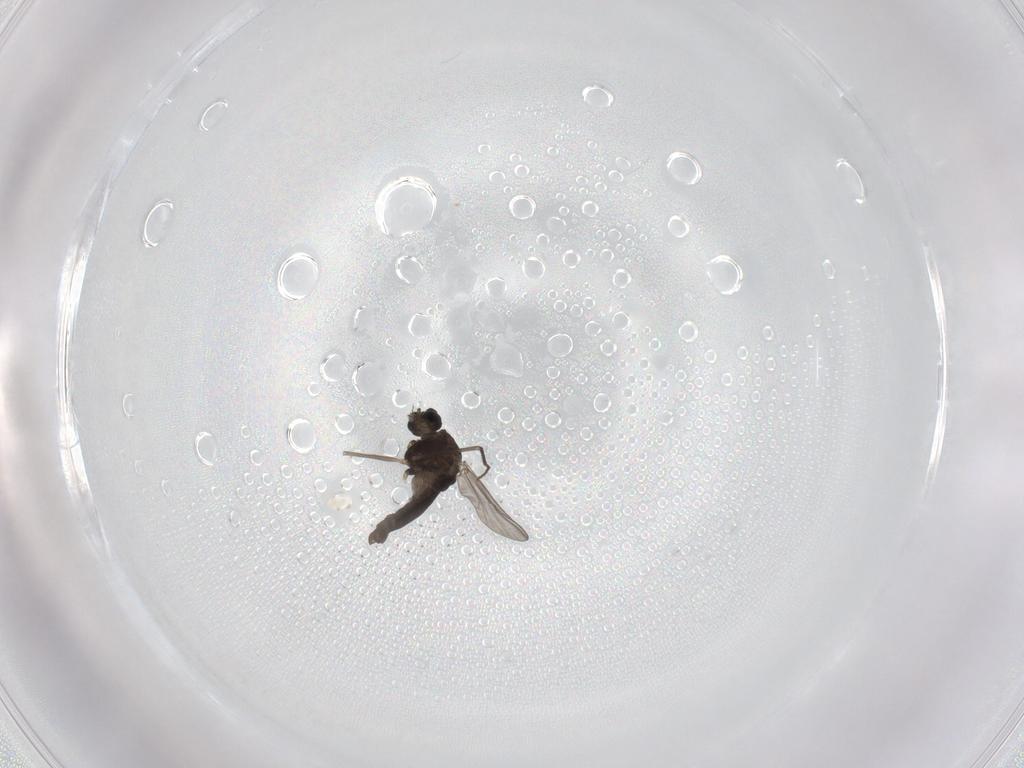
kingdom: Animalia
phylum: Arthropoda
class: Insecta
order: Diptera
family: Chironomidae
